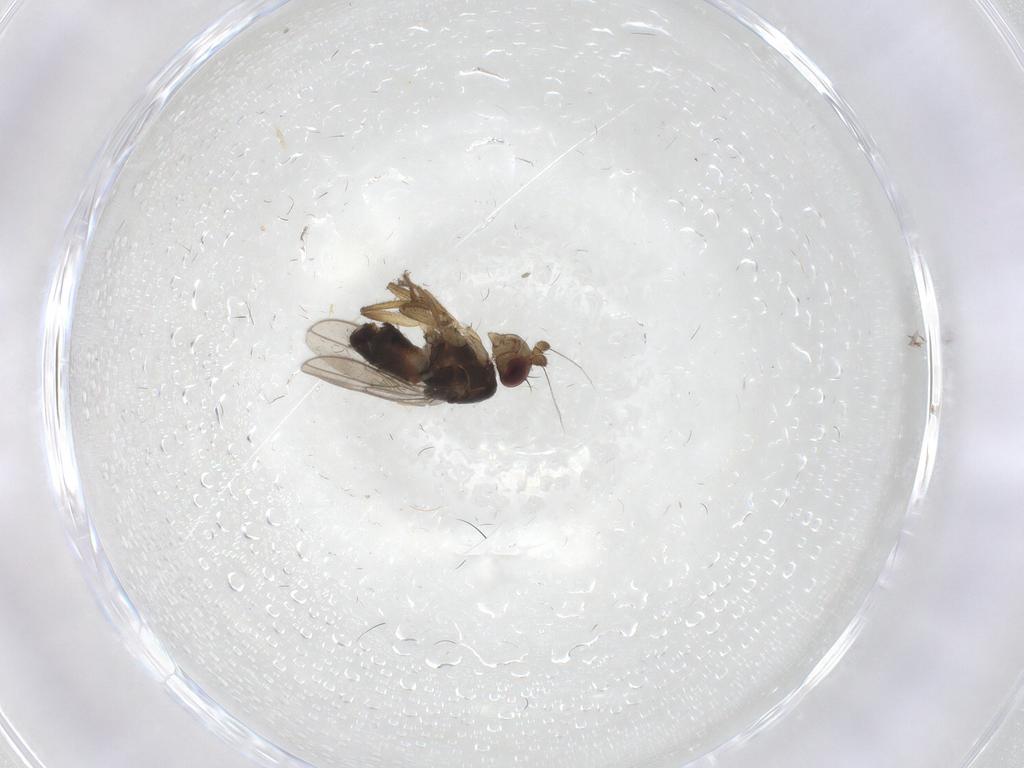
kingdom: Animalia
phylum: Arthropoda
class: Insecta
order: Diptera
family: Sphaeroceridae
